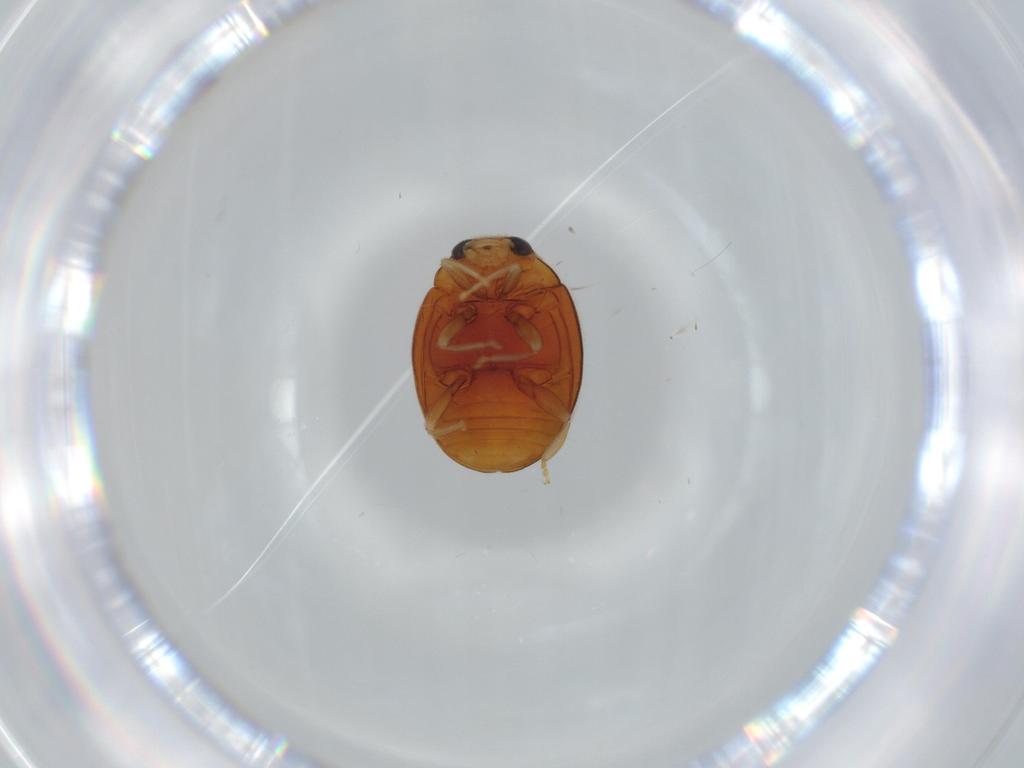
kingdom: Animalia
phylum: Arthropoda
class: Insecta
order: Coleoptera
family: Coccinellidae
